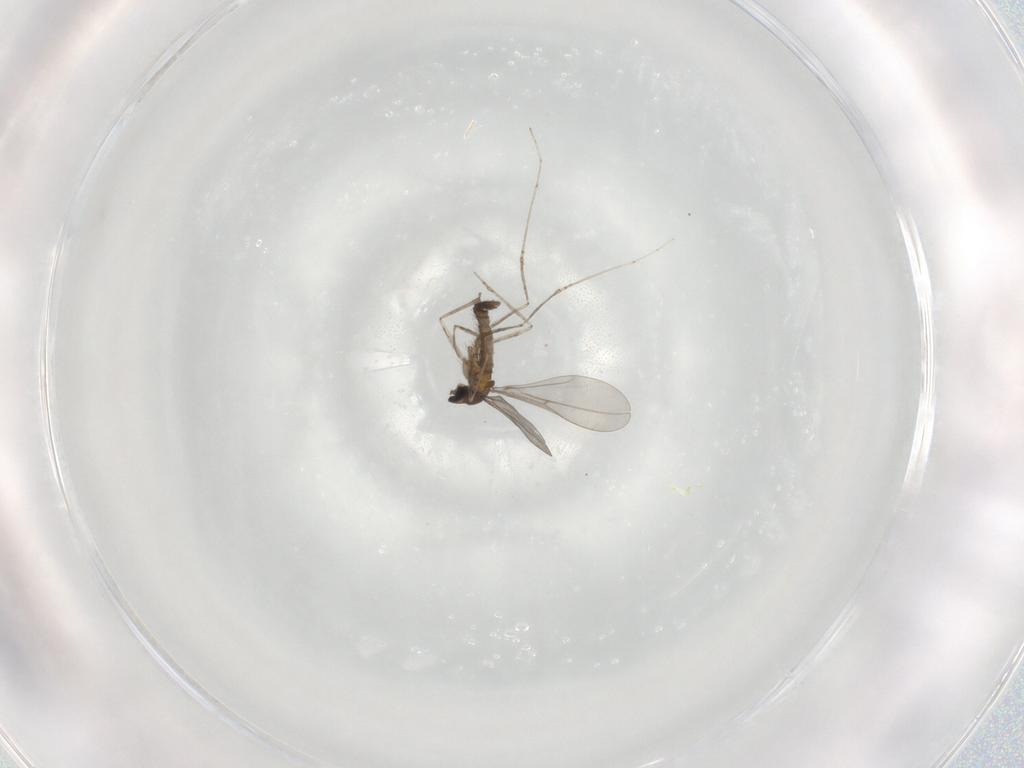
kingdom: Animalia
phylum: Arthropoda
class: Insecta
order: Diptera
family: Cecidomyiidae
